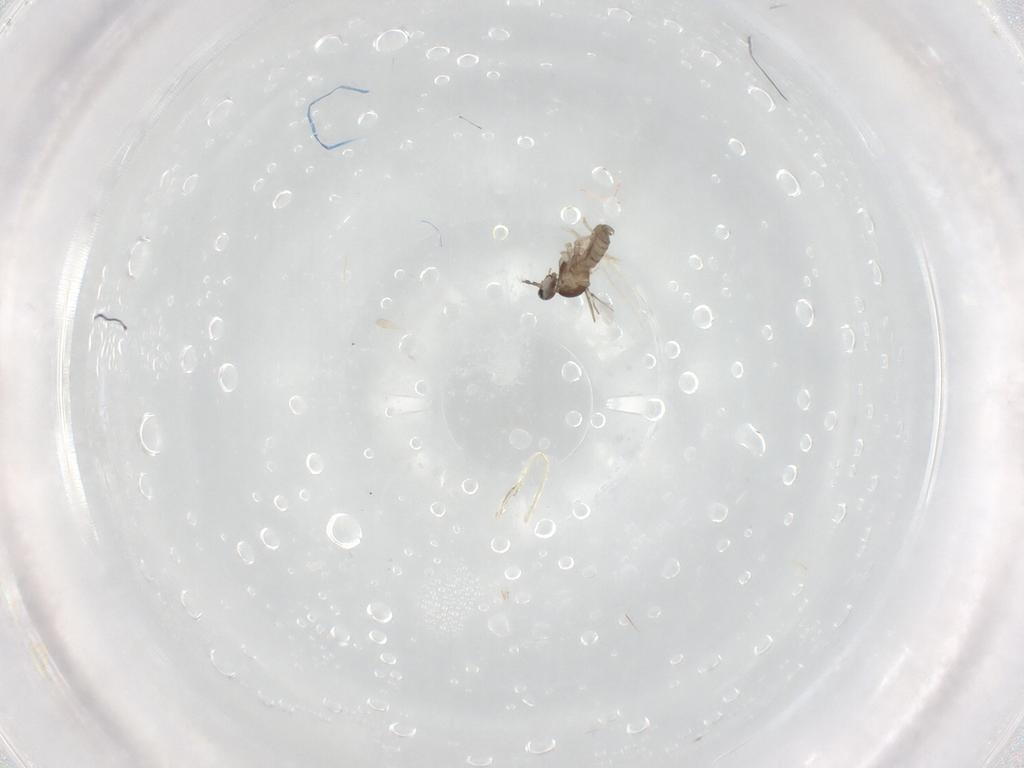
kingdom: Animalia
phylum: Arthropoda
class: Insecta
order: Diptera
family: Cecidomyiidae
